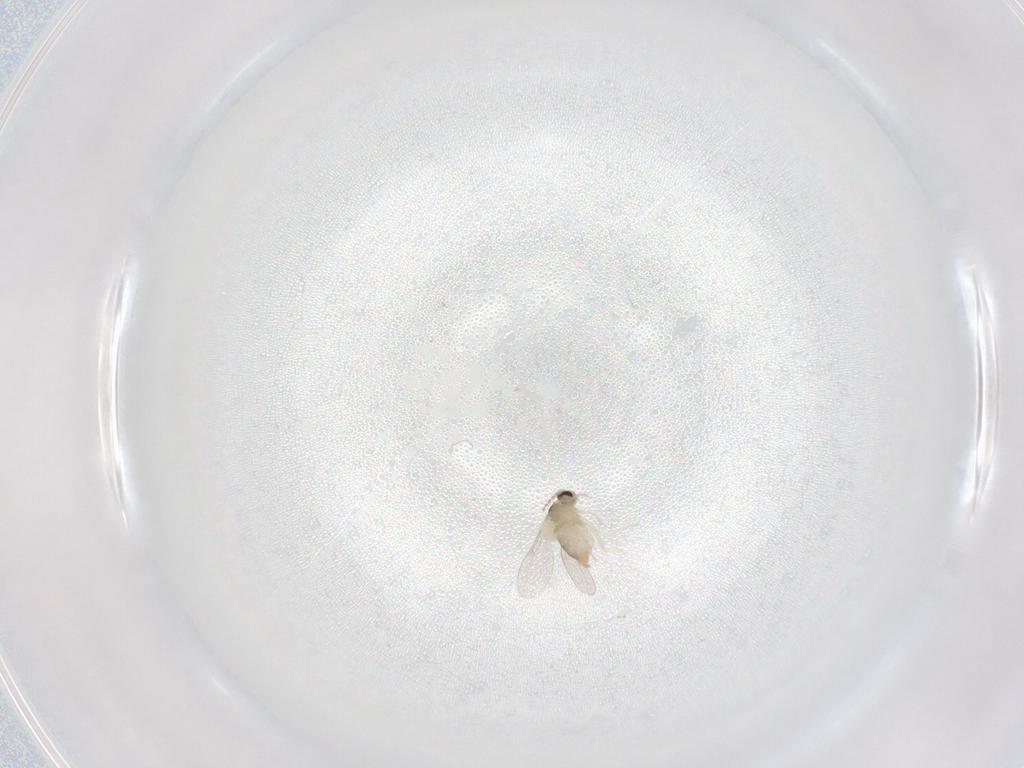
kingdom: Animalia
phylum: Arthropoda
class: Insecta
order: Diptera
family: Cecidomyiidae
